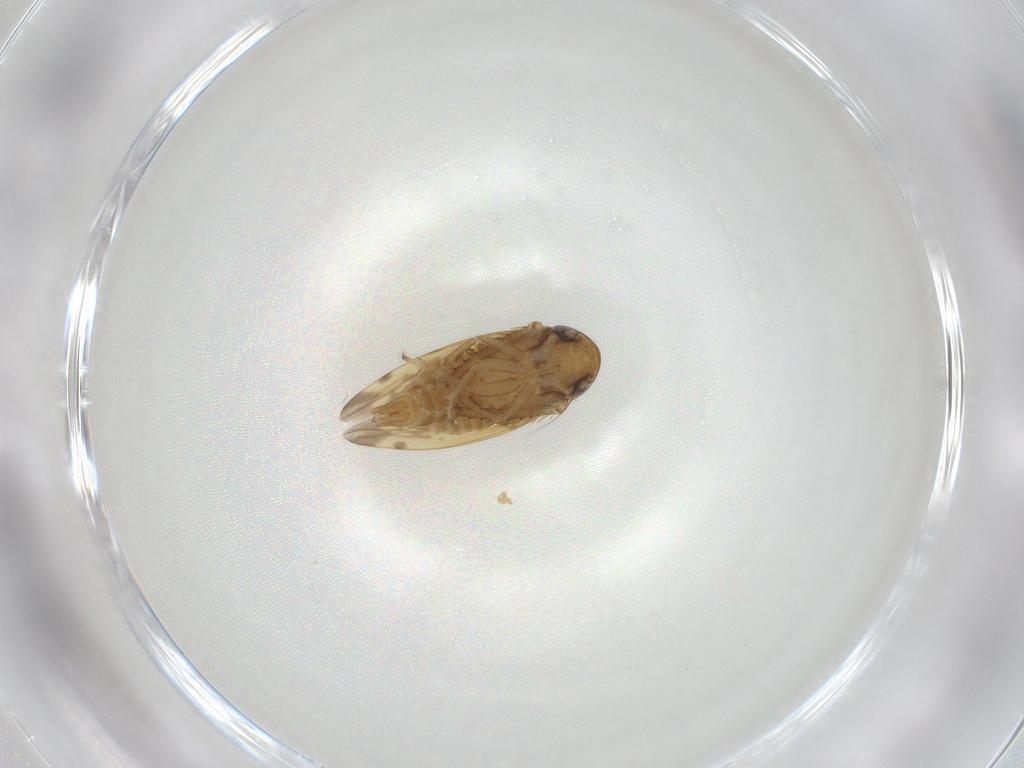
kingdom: Animalia
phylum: Arthropoda
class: Insecta
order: Hemiptera
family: Cicadellidae
